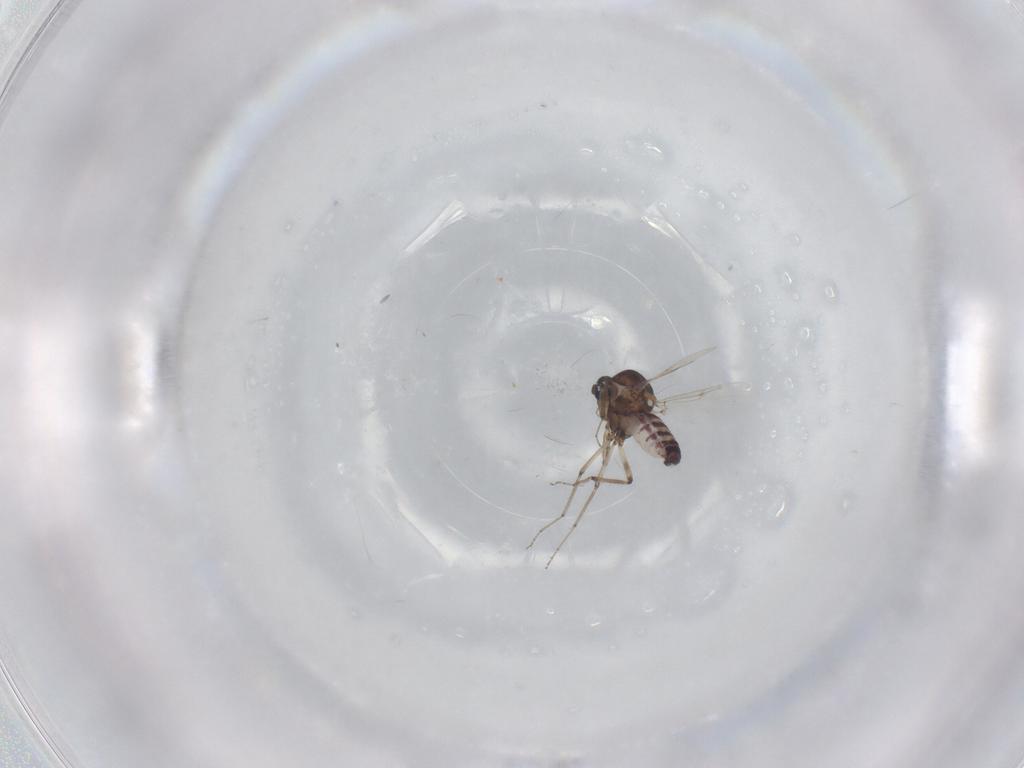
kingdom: Animalia
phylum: Arthropoda
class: Insecta
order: Diptera
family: Ceratopogonidae
